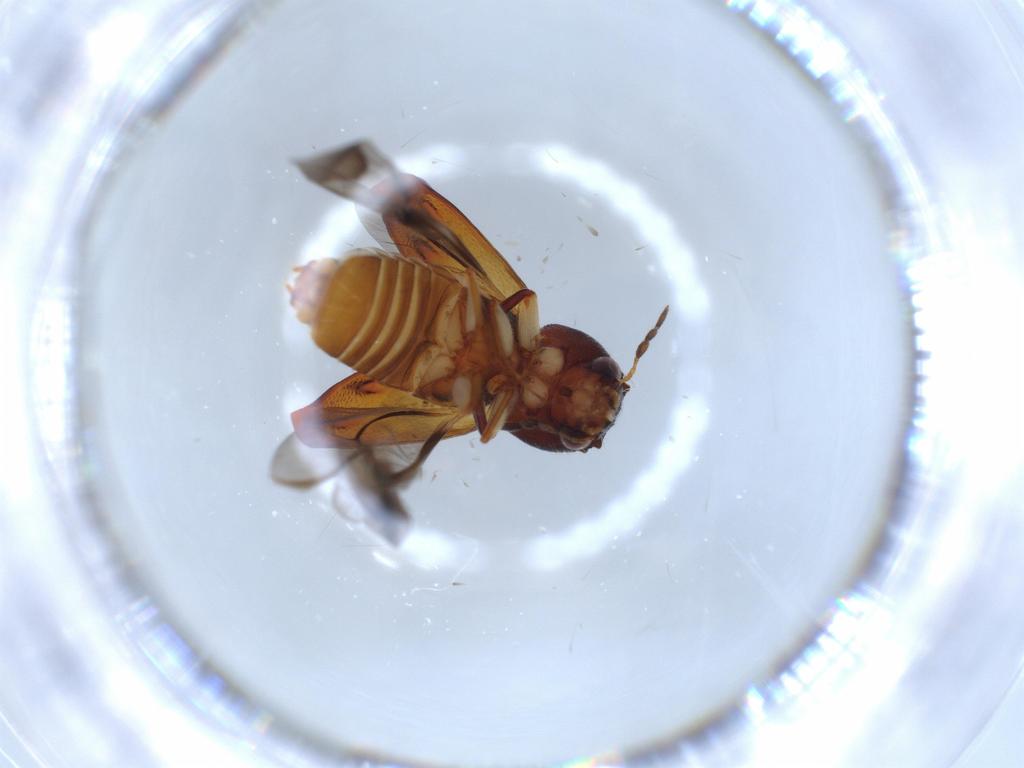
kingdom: Animalia
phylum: Arthropoda
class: Insecta
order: Coleoptera
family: Bostrichidae
